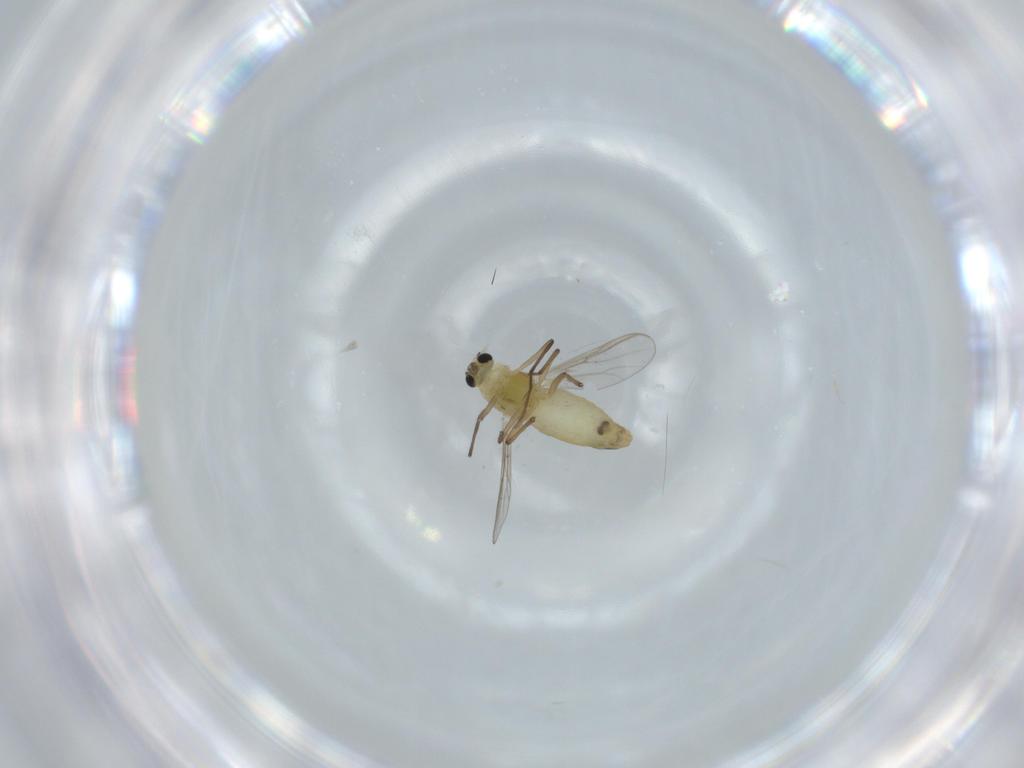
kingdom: Animalia
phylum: Arthropoda
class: Insecta
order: Diptera
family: Chironomidae
